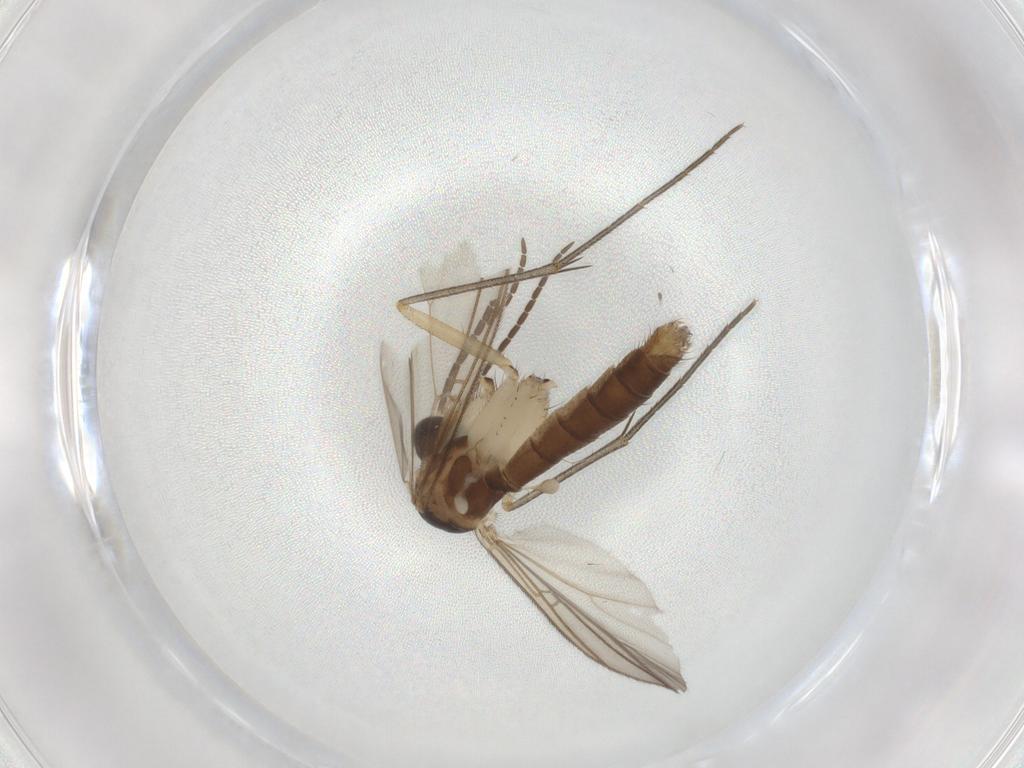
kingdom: Animalia
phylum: Arthropoda
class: Insecta
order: Diptera
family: Cecidomyiidae
